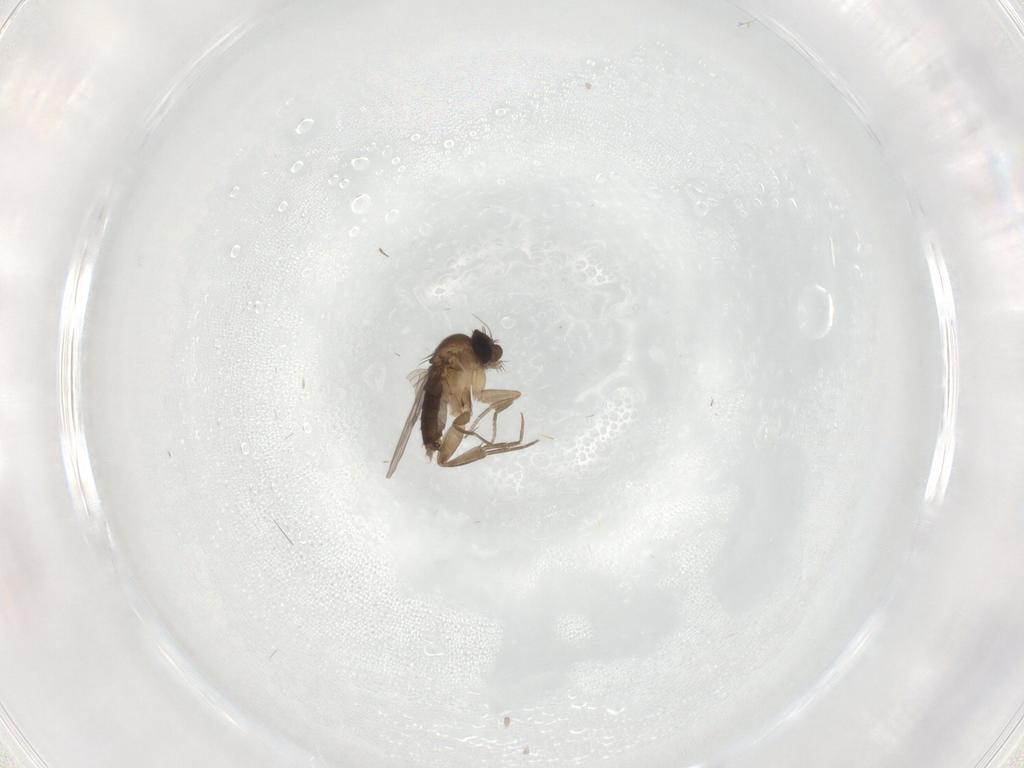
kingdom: Animalia
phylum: Arthropoda
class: Insecta
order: Diptera
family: Phoridae
